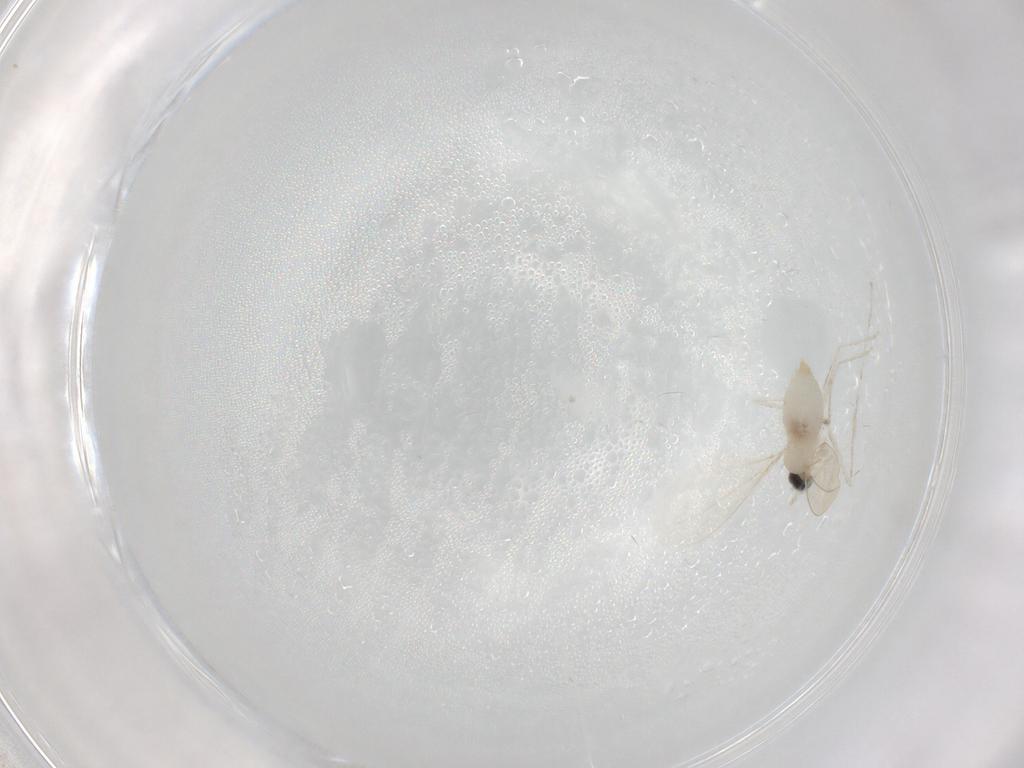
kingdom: Animalia
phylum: Arthropoda
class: Insecta
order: Diptera
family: Cecidomyiidae
